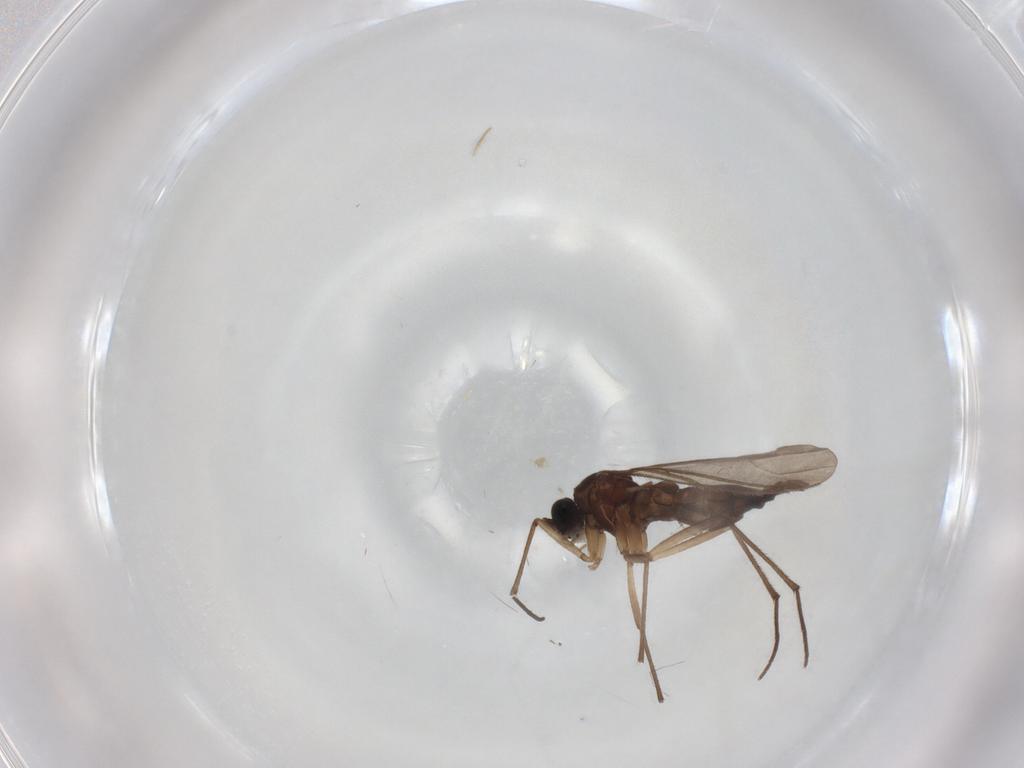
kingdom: Animalia
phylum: Arthropoda
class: Insecta
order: Diptera
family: Sciaridae
